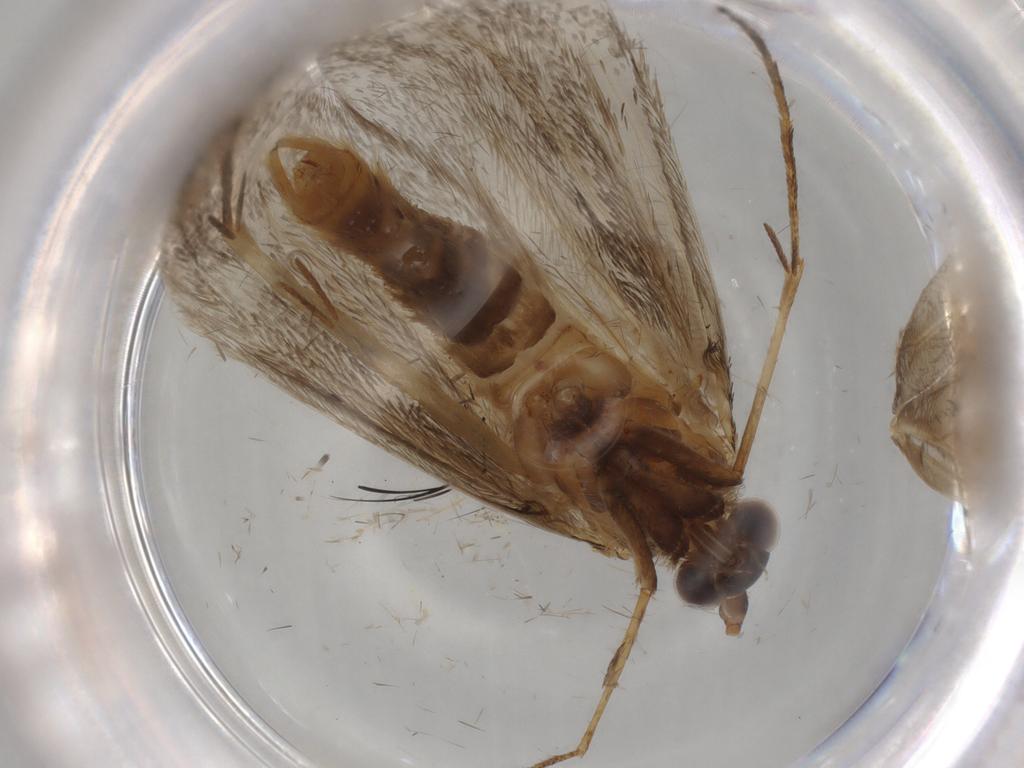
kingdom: Animalia
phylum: Arthropoda
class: Insecta
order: Lepidoptera
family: Elachistidae
